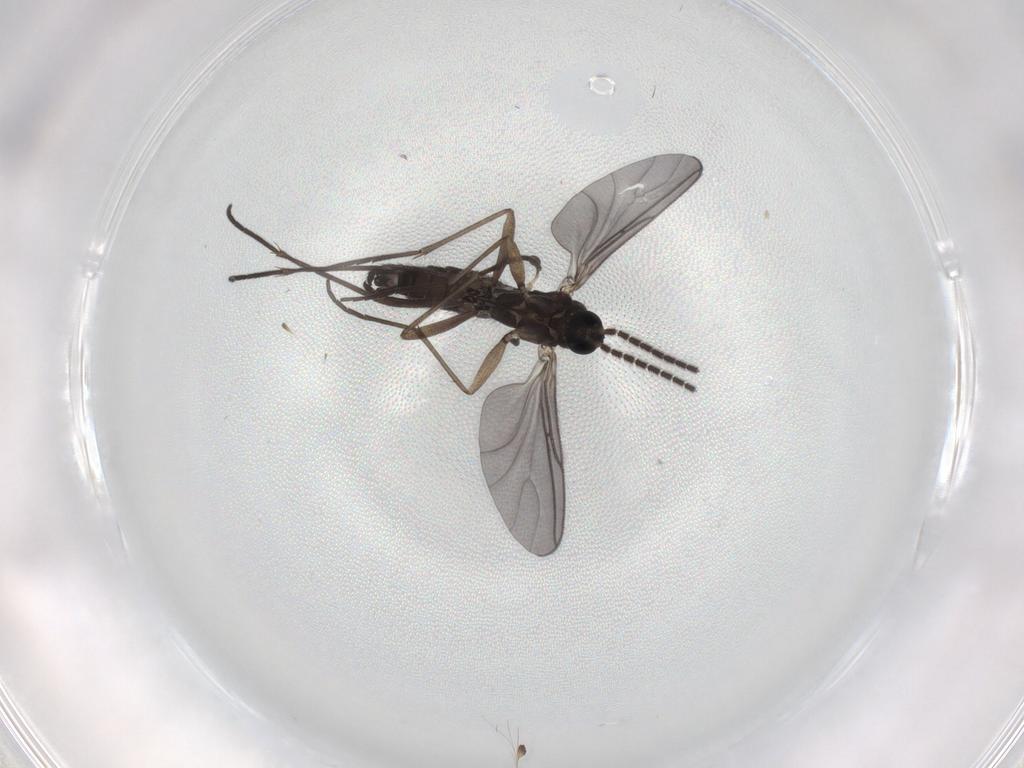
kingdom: Animalia
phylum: Arthropoda
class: Insecta
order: Diptera
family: Sciaridae
